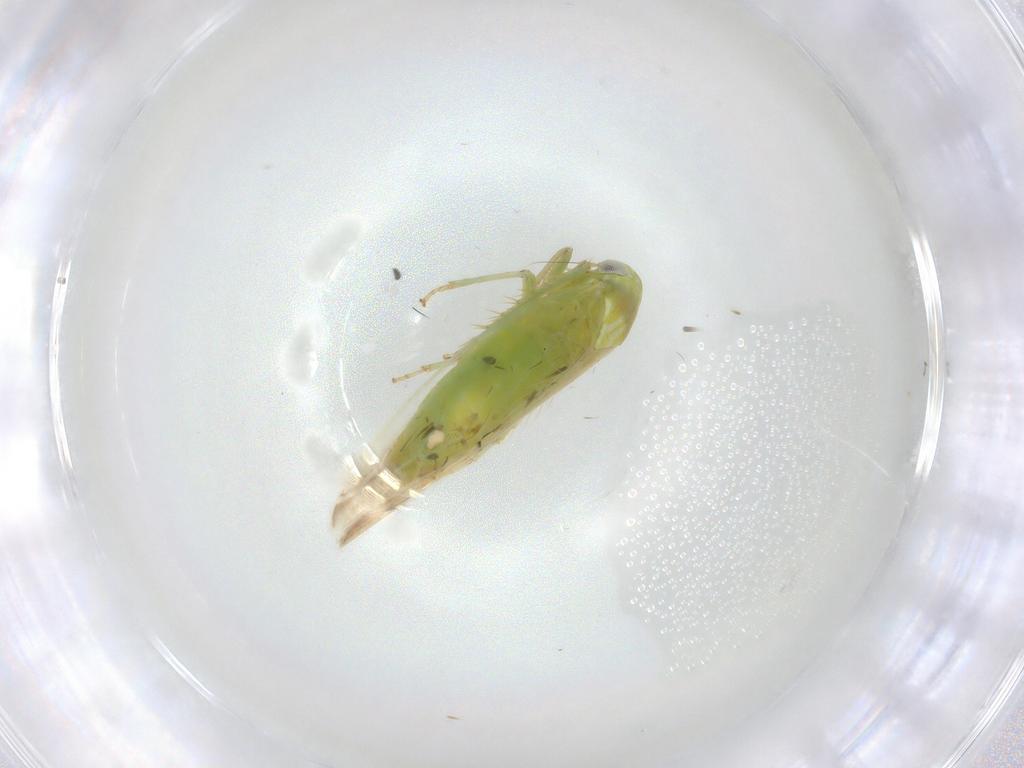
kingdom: Animalia
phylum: Arthropoda
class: Insecta
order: Hemiptera
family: Cicadellidae
